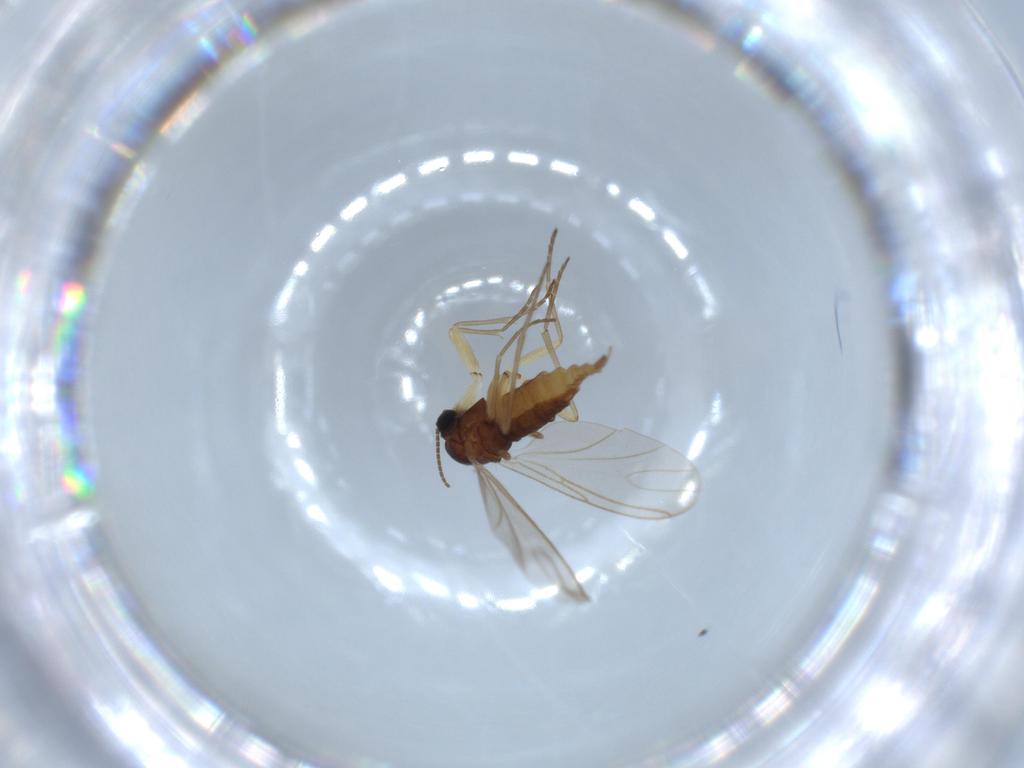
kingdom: Animalia
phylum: Arthropoda
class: Insecta
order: Diptera
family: Sciaridae
